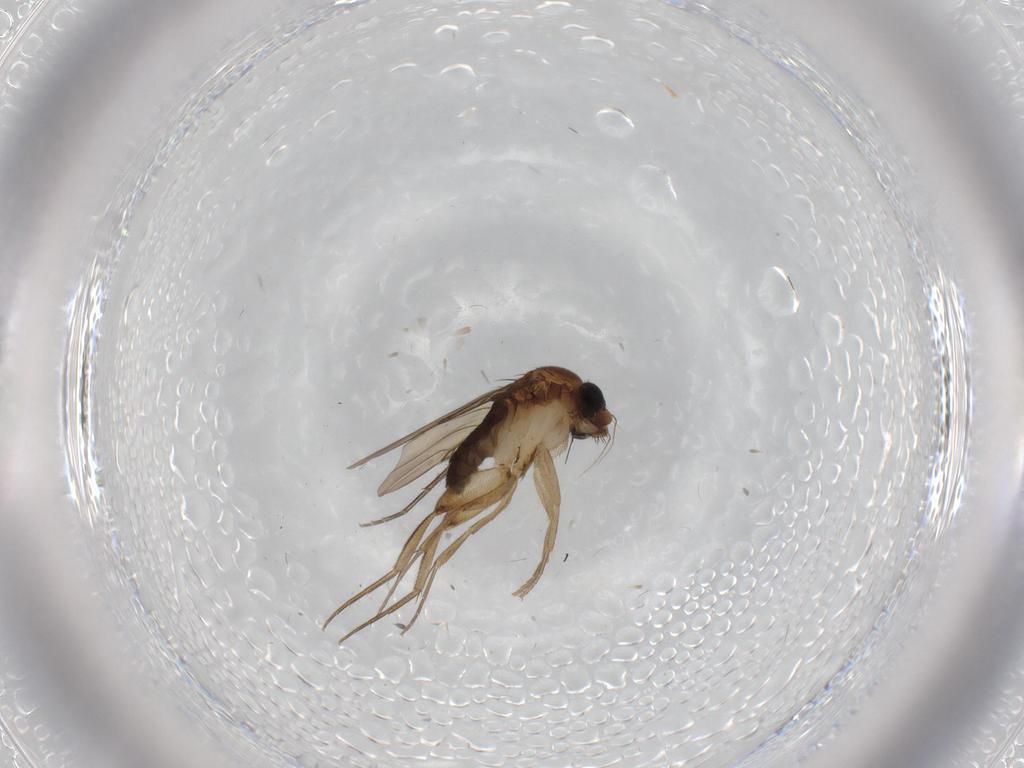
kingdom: Animalia
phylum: Arthropoda
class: Insecta
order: Diptera
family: Phoridae
